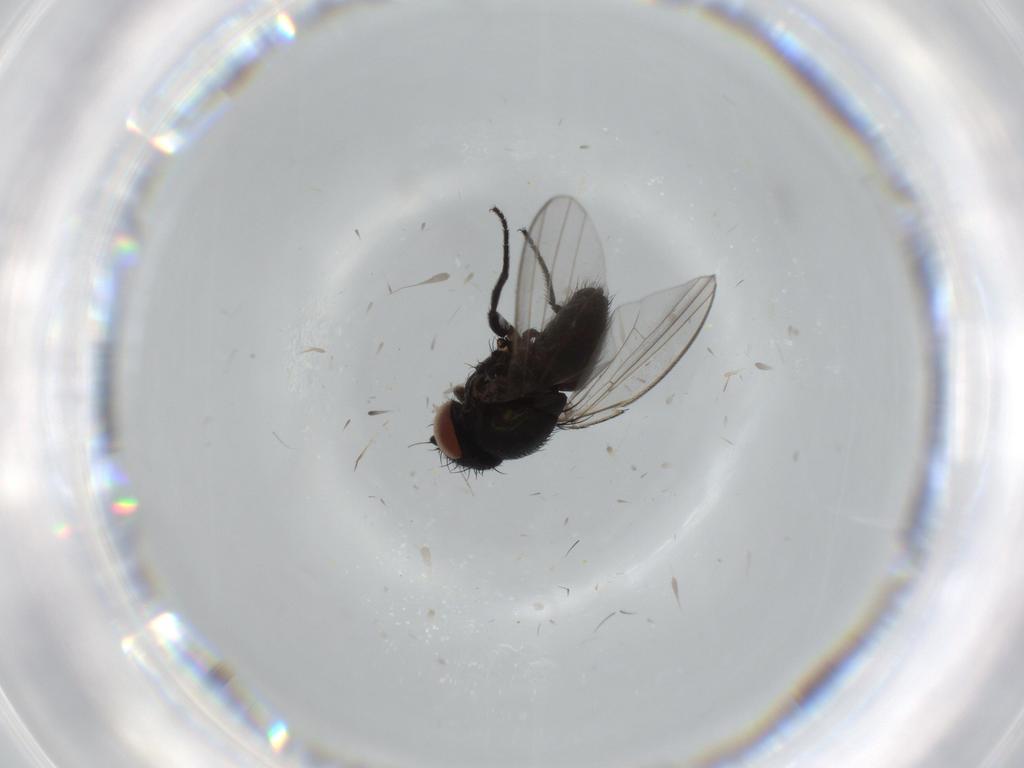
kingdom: Animalia
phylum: Arthropoda
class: Insecta
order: Diptera
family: Milichiidae
